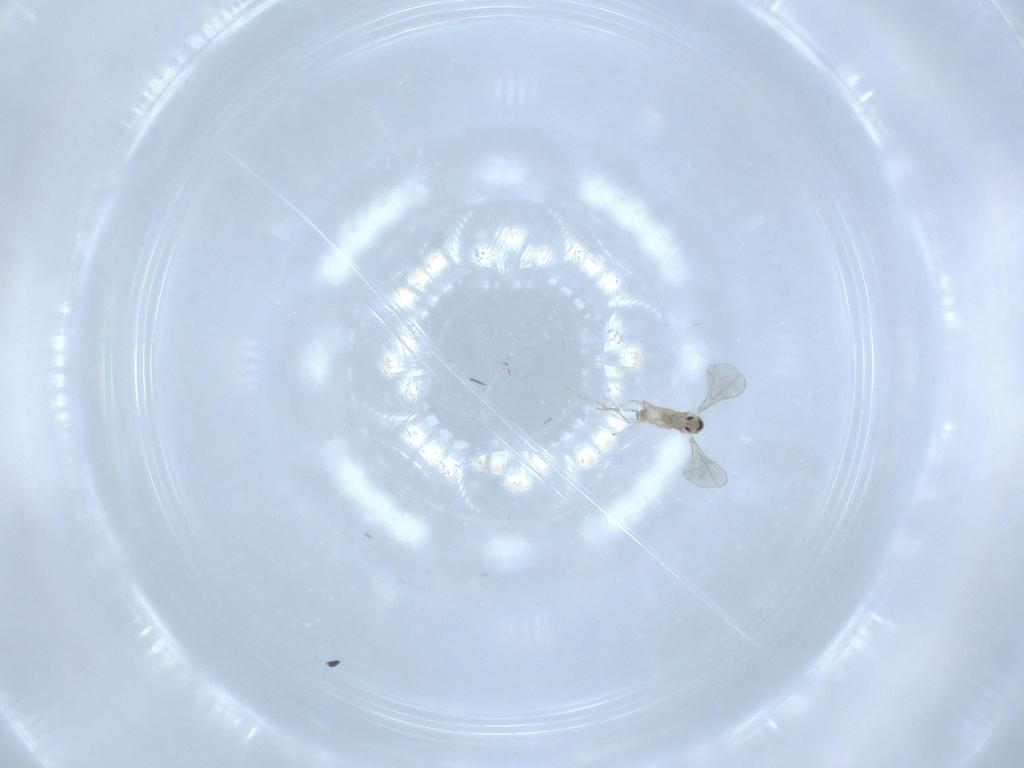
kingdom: Animalia
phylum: Arthropoda
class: Insecta
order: Diptera
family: Cecidomyiidae
